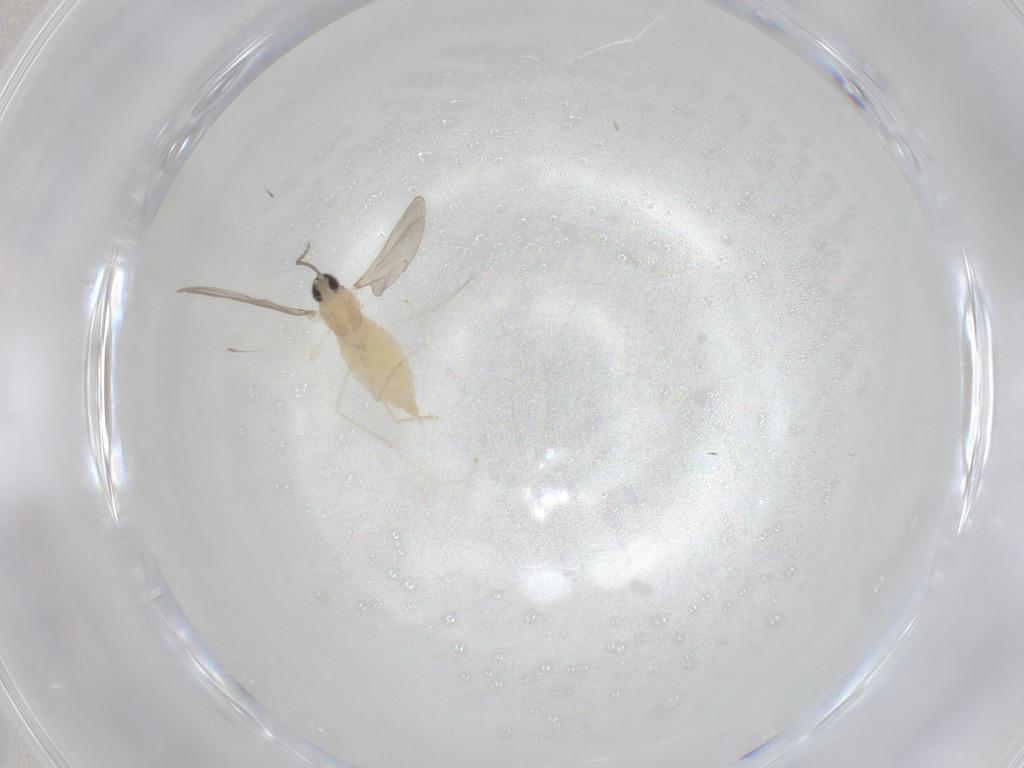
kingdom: Animalia
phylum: Arthropoda
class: Insecta
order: Diptera
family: Cecidomyiidae
